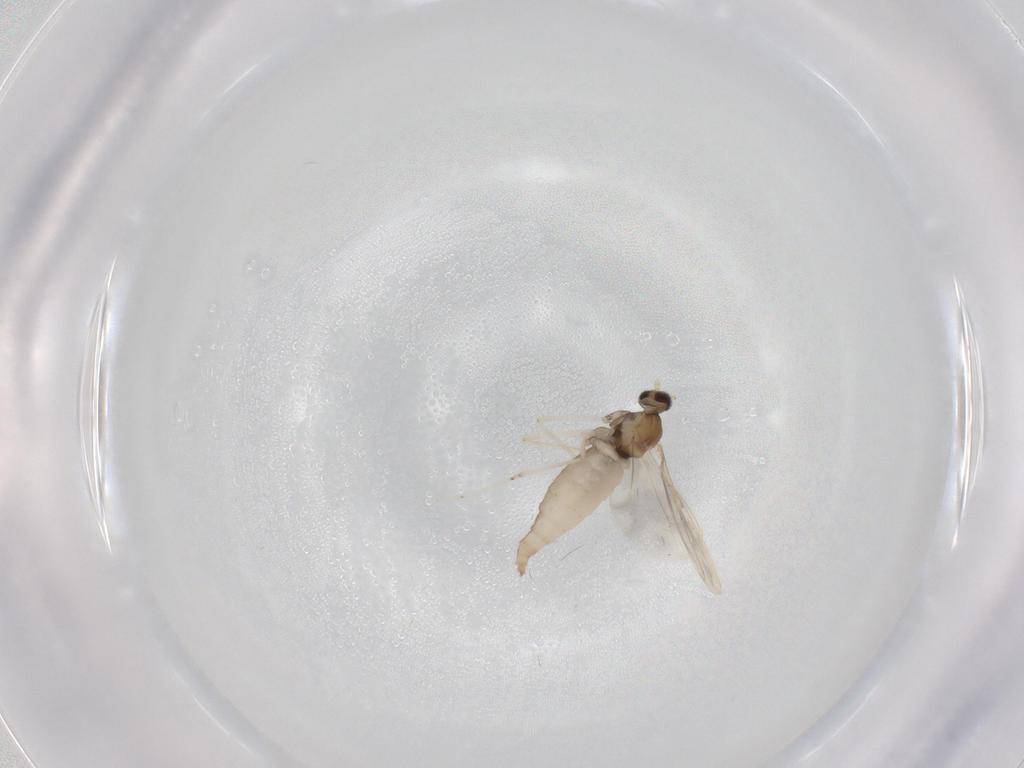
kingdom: Animalia
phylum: Arthropoda
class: Insecta
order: Diptera
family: Cecidomyiidae
